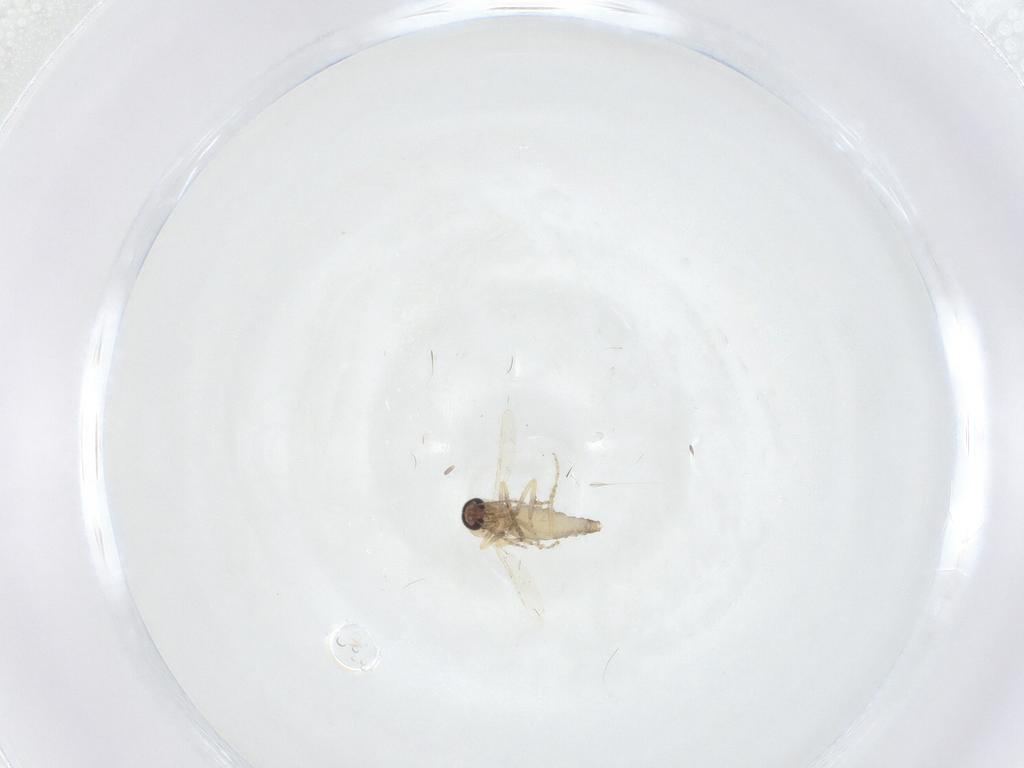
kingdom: Animalia
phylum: Arthropoda
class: Insecta
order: Diptera
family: Ceratopogonidae
